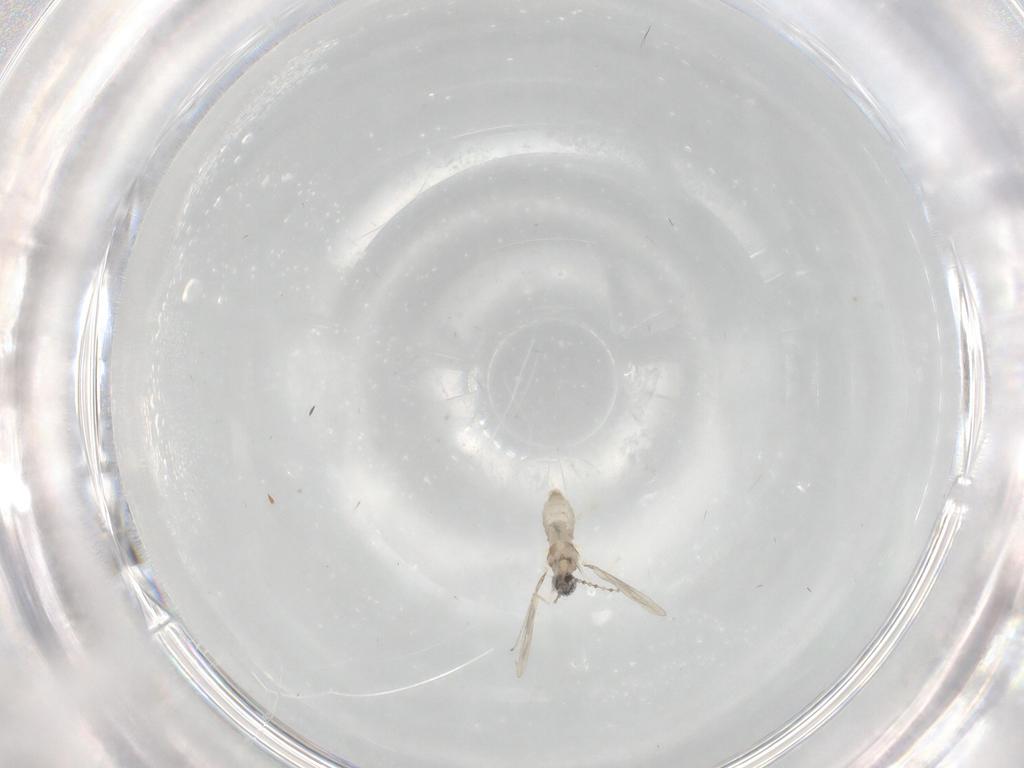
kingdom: Animalia
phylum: Arthropoda
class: Insecta
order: Diptera
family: Cecidomyiidae
